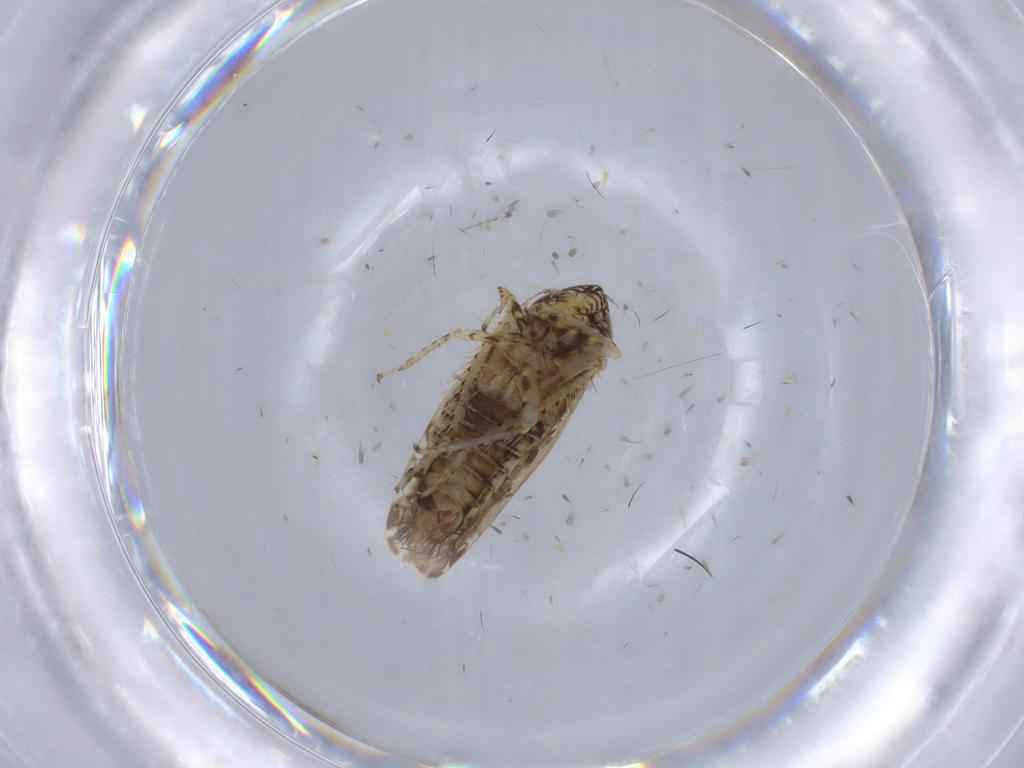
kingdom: Animalia
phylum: Arthropoda
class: Insecta
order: Hemiptera
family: Cicadellidae
